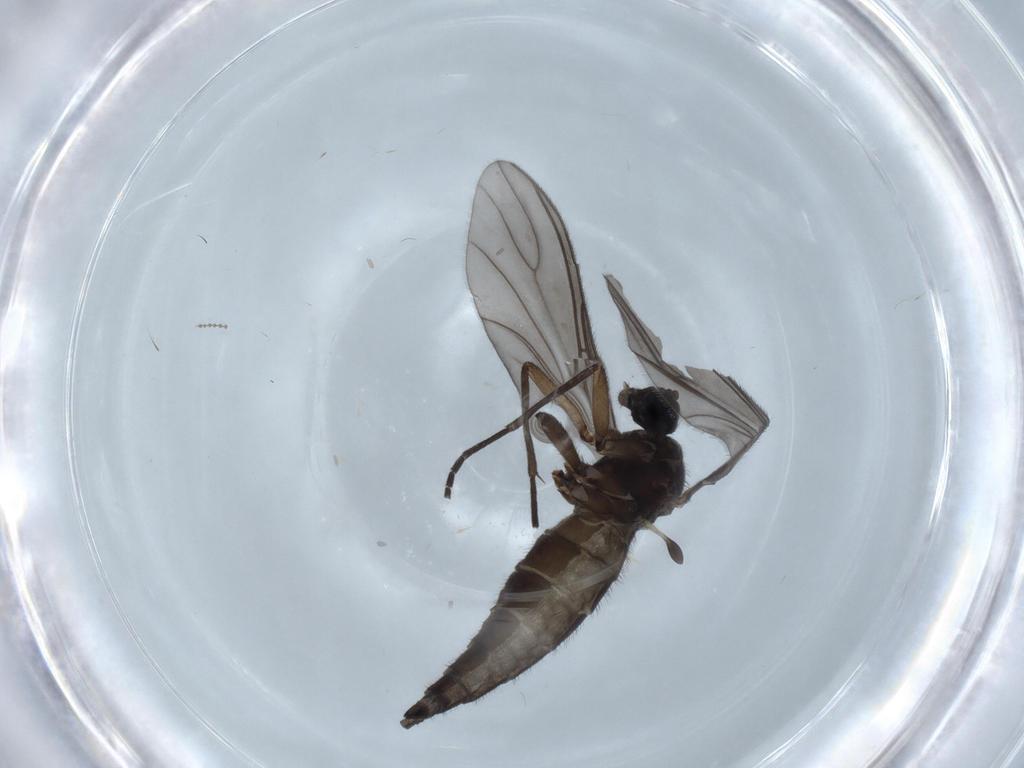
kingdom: Animalia
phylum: Arthropoda
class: Insecta
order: Diptera
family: Sciaridae
